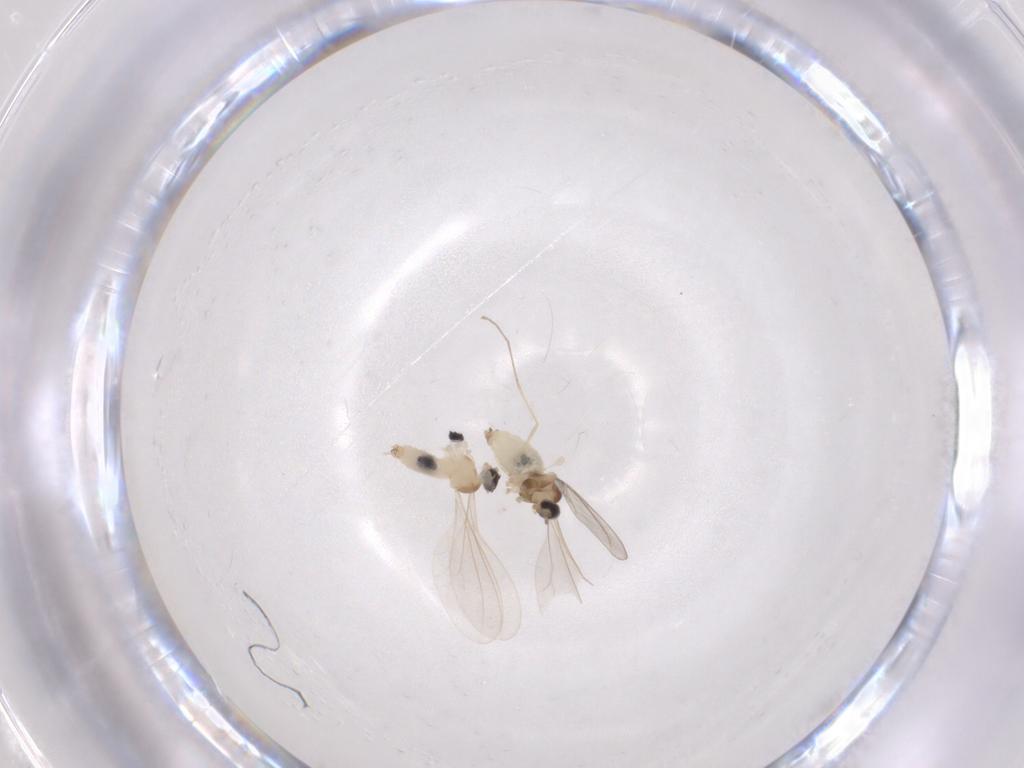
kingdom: Animalia
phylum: Arthropoda
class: Insecta
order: Diptera
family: Cecidomyiidae
